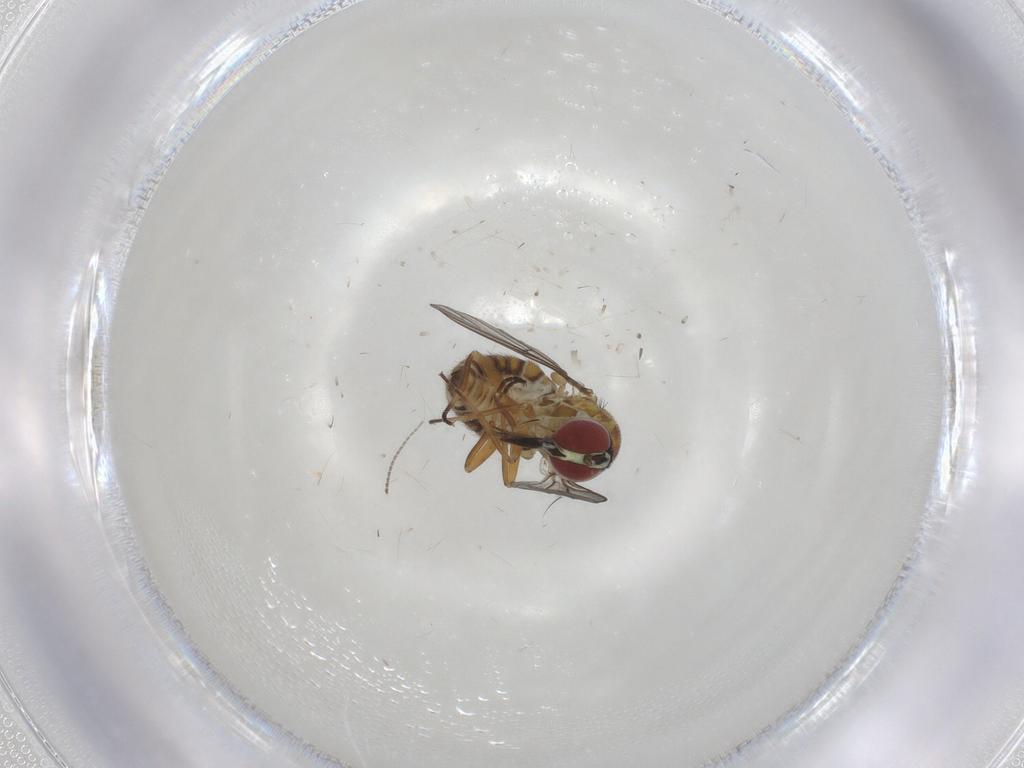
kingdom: Animalia
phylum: Arthropoda
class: Insecta
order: Diptera
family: Bombyliidae
